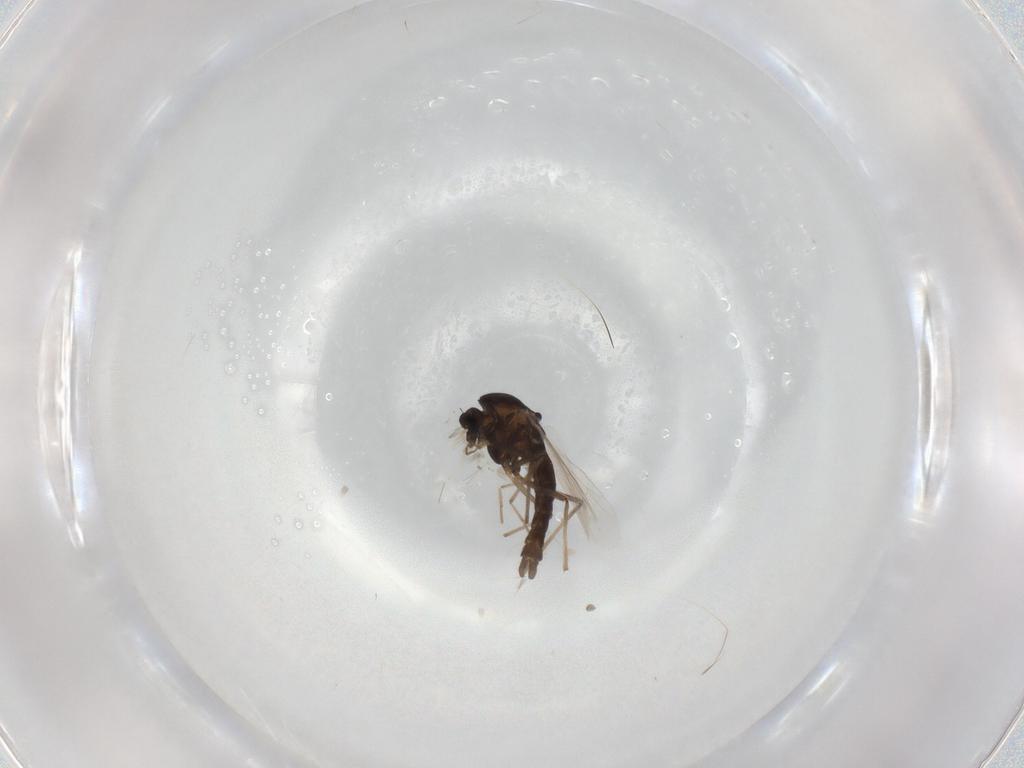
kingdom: Animalia
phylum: Arthropoda
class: Insecta
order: Diptera
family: Chironomidae
